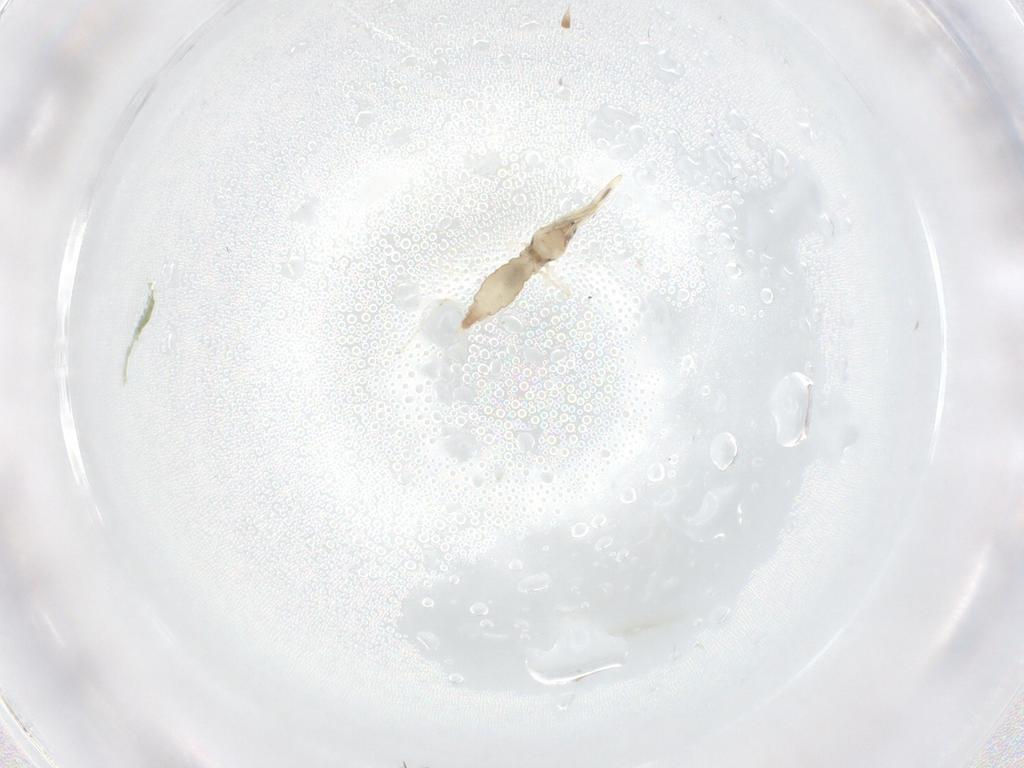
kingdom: Animalia
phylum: Arthropoda
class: Insecta
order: Diptera
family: Cecidomyiidae
